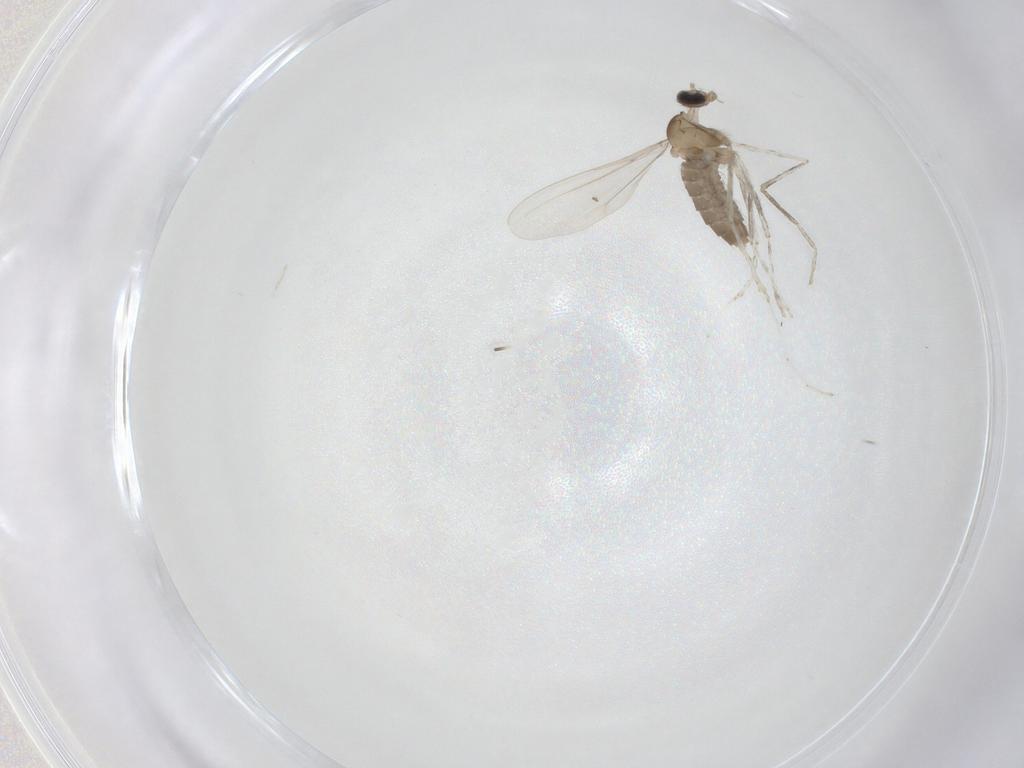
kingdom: Animalia
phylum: Arthropoda
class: Insecta
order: Diptera
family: Cecidomyiidae
